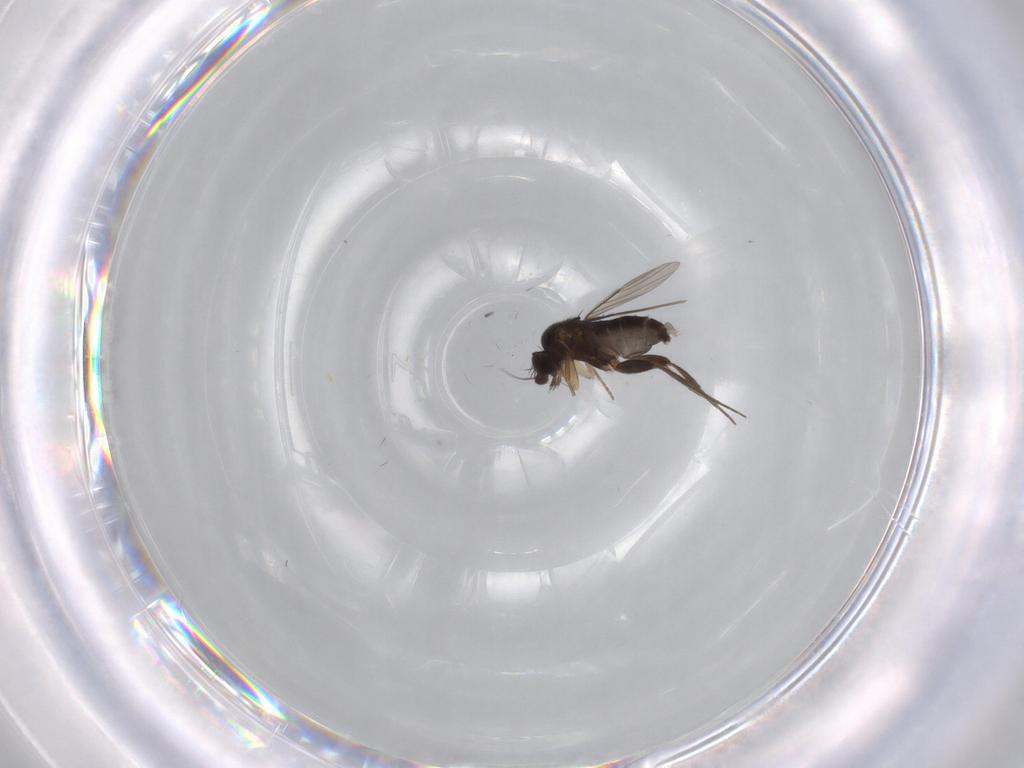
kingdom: Animalia
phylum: Arthropoda
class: Insecta
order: Diptera
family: Phoridae
